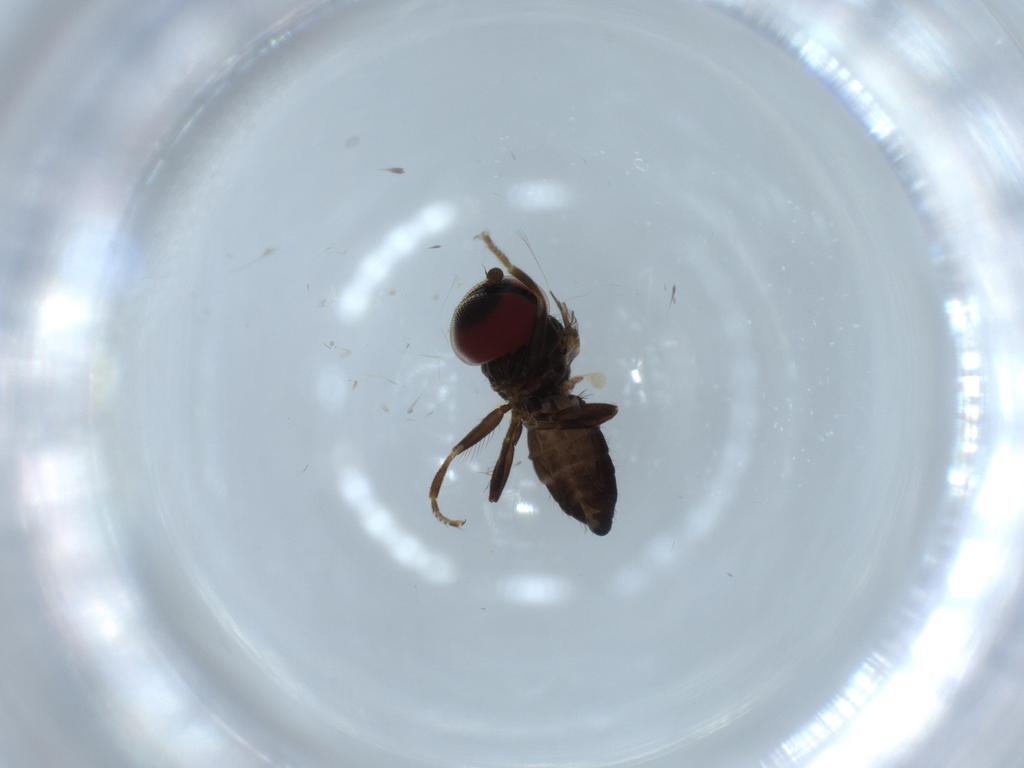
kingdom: Animalia
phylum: Arthropoda
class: Insecta
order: Diptera
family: Pipunculidae
